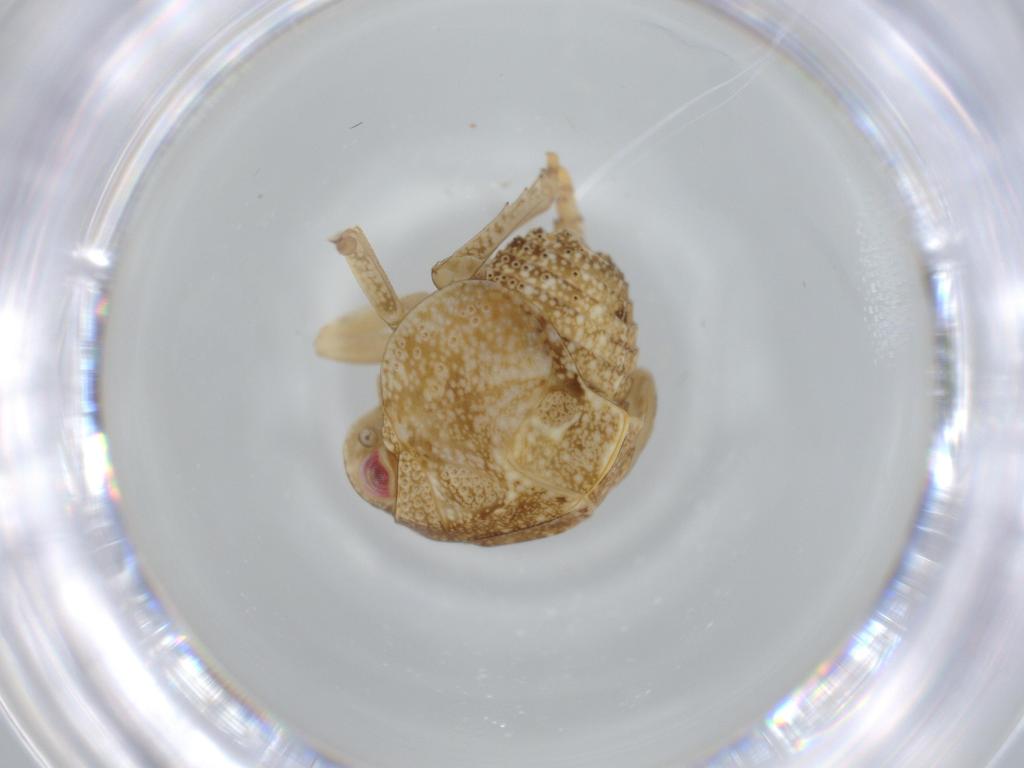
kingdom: Animalia
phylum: Arthropoda
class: Insecta
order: Hemiptera
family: Acanaloniidae
